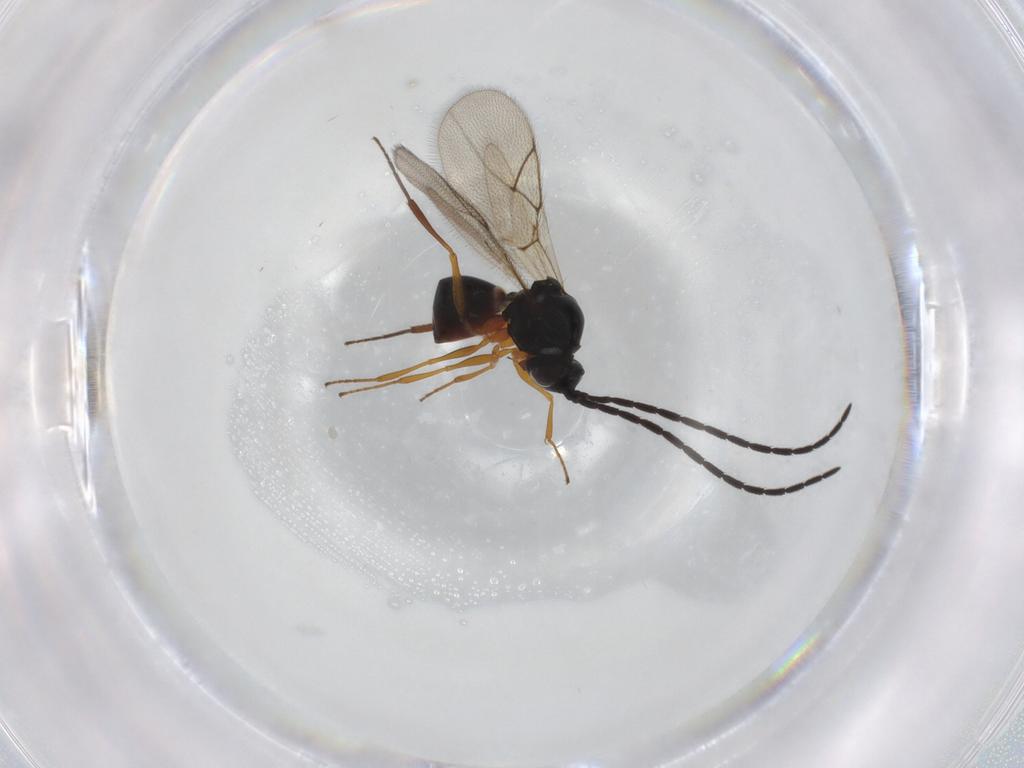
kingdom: Animalia
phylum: Arthropoda
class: Insecta
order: Hymenoptera
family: Figitidae
